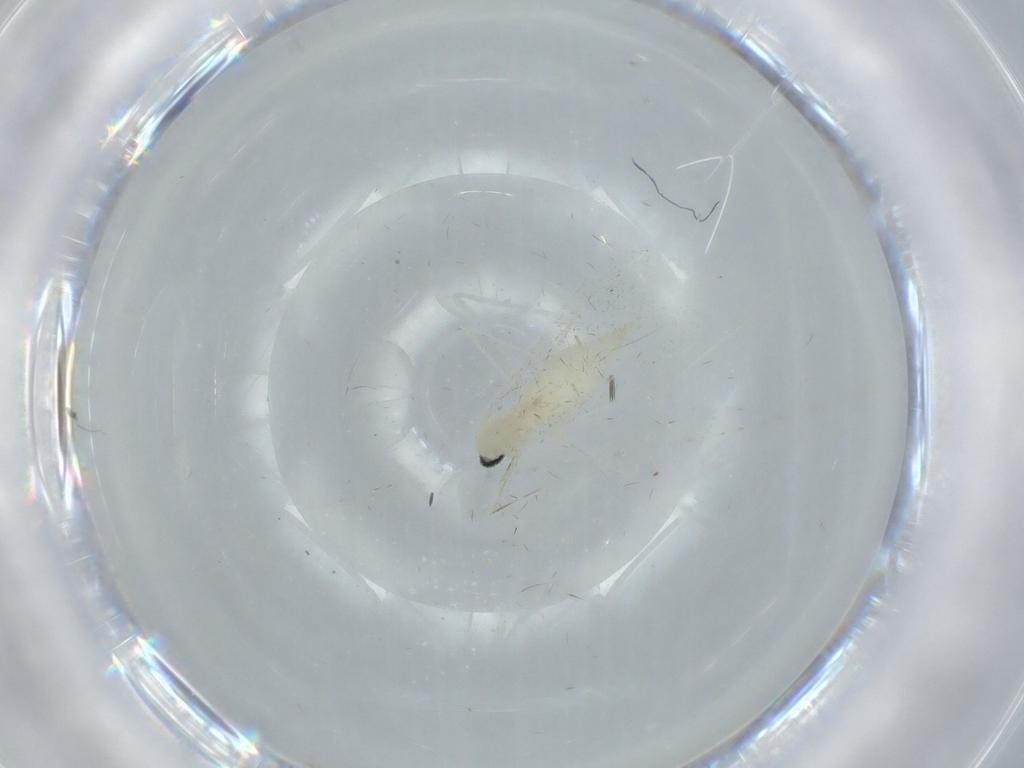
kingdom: Animalia
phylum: Arthropoda
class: Insecta
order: Diptera
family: Cecidomyiidae
